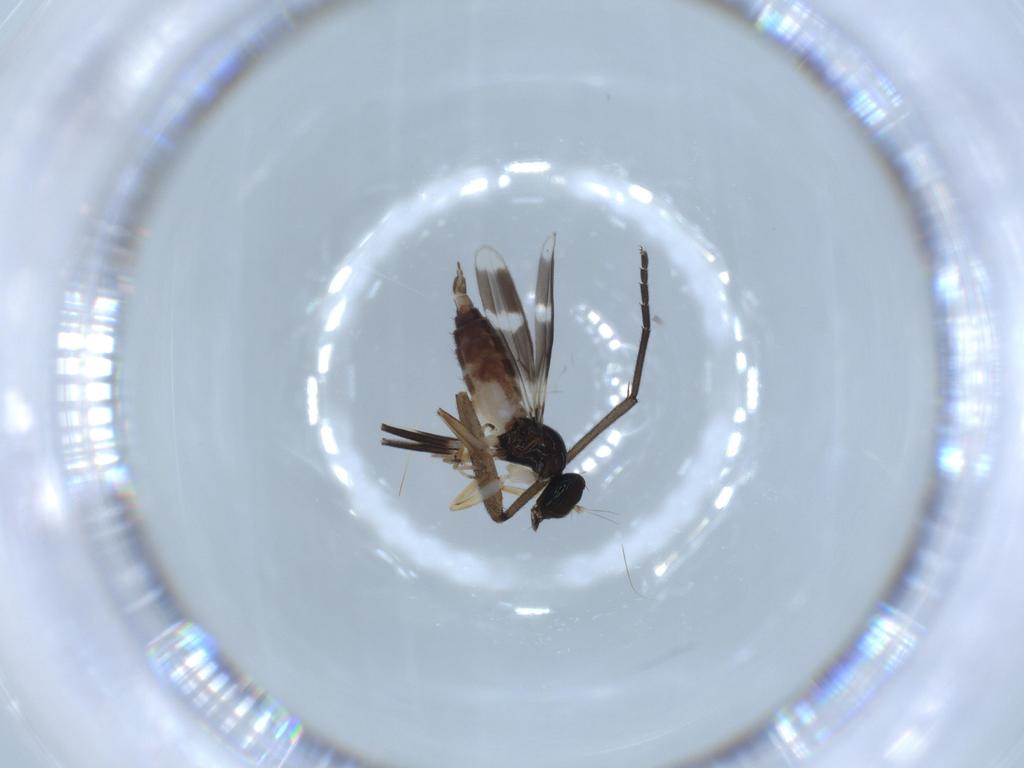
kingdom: Animalia
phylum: Arthropoda
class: Insecta
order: Diptera
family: Hybotidae
